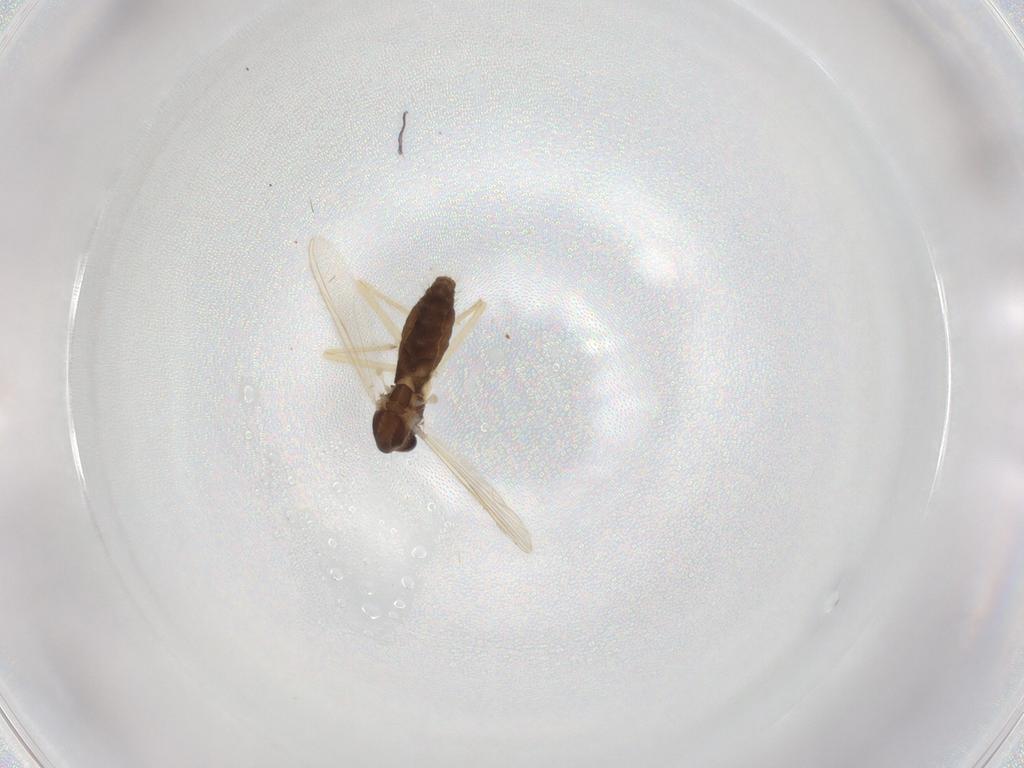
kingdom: Animalia
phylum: Arthropoda
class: Insecta
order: Diptera
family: Chironomidae
